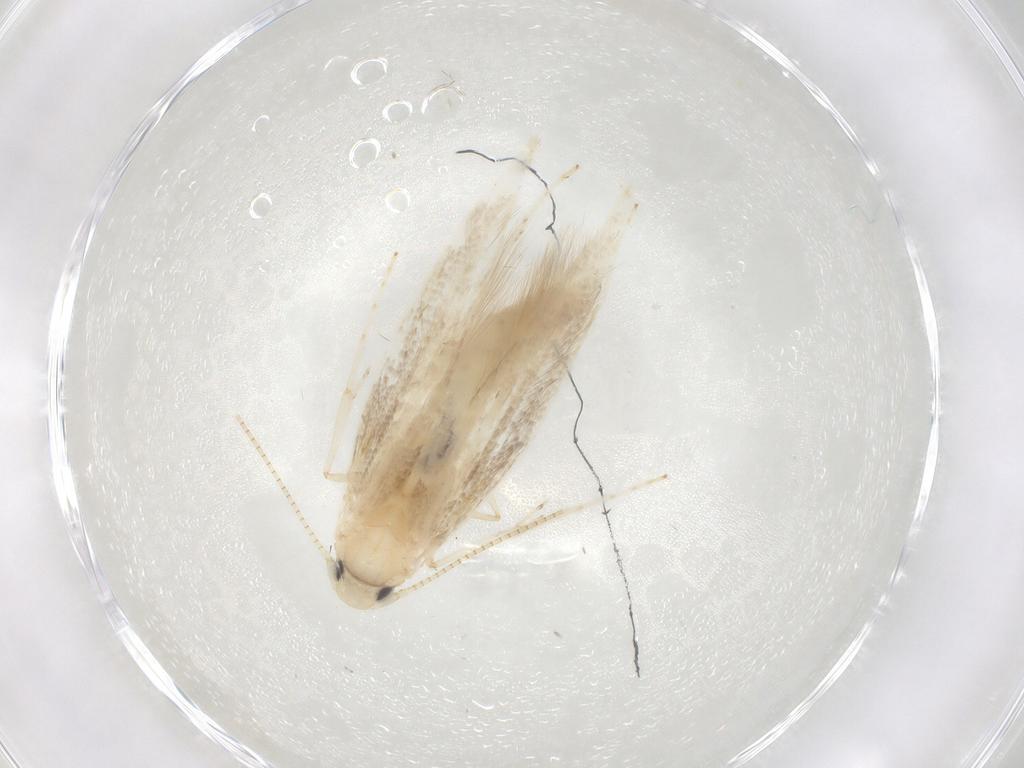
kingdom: Animalia
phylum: Arthropoda
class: Insecta
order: Lepidoptera
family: Gracillariidae
